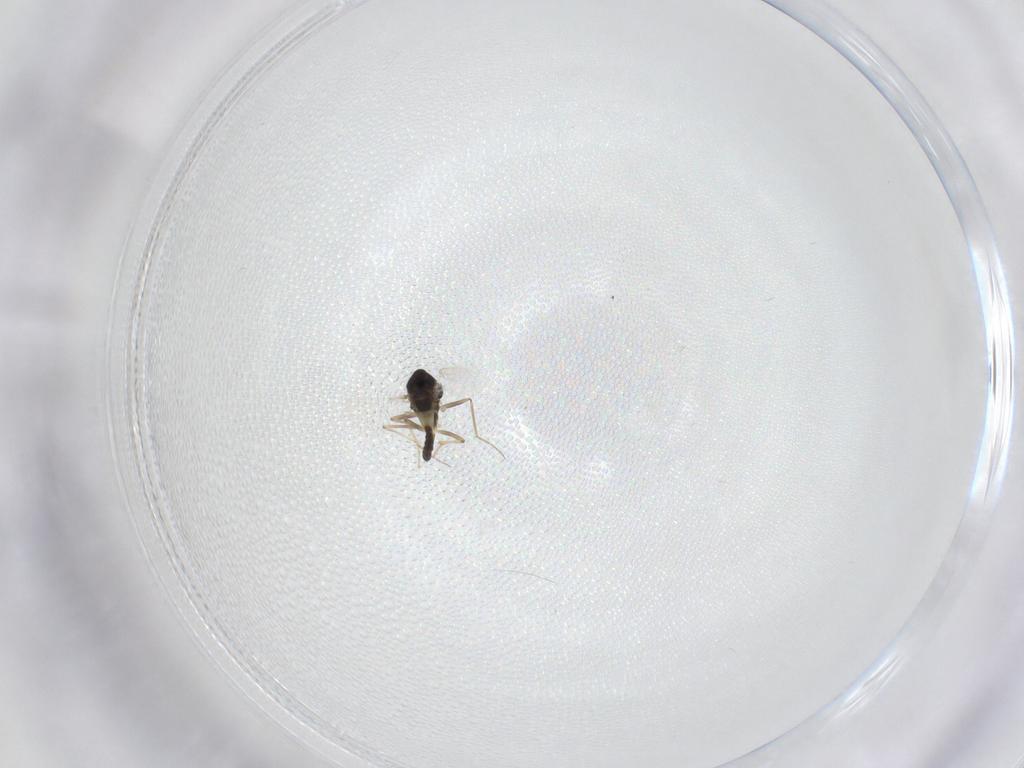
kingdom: Animalia
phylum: Arthropoda
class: Insecta
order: Diptera
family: Chironomidae
